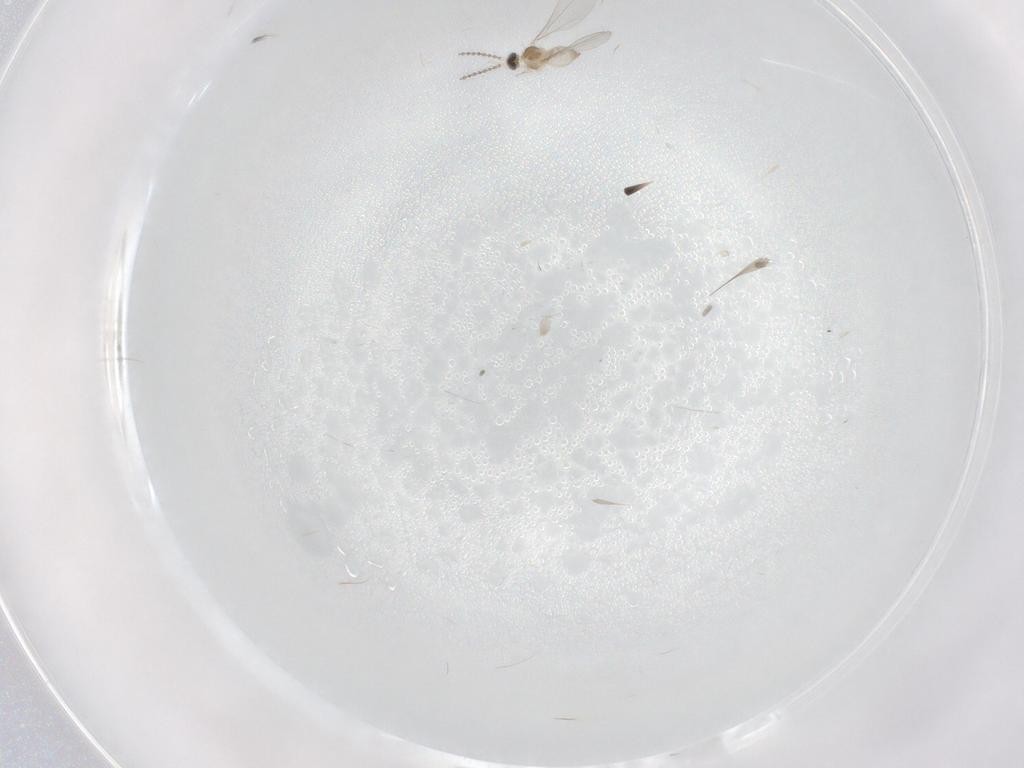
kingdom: Animalia
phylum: Arthropoda
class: Insecta
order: Diptera
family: Cecidomyiidae
